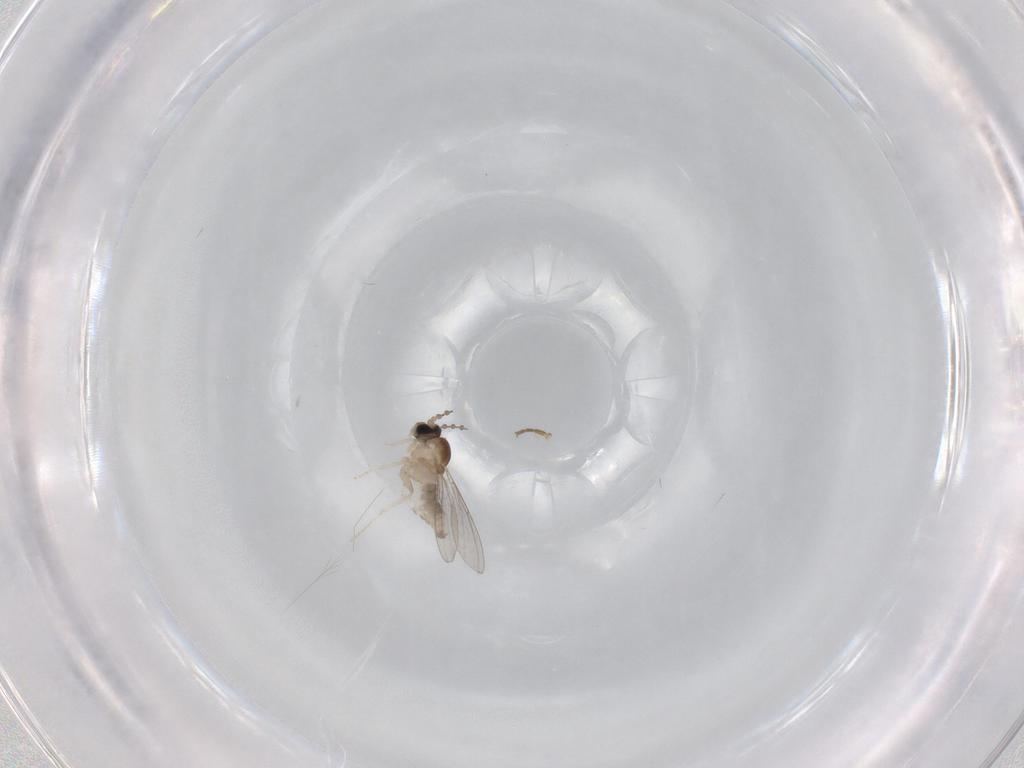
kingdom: Animalia
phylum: Arthropoda
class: Insecta
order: Diptera
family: Cecidomyiidae
